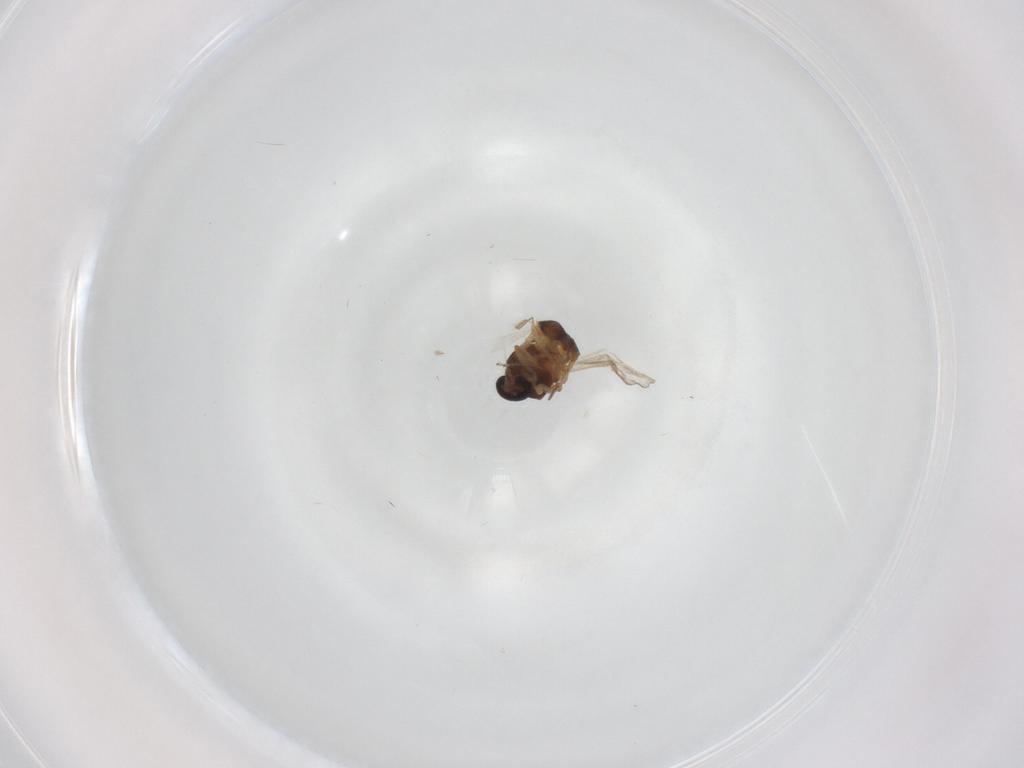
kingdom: Animalia
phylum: Arthropoda
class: Insecta
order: Diptera
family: Ceratopogonidae
